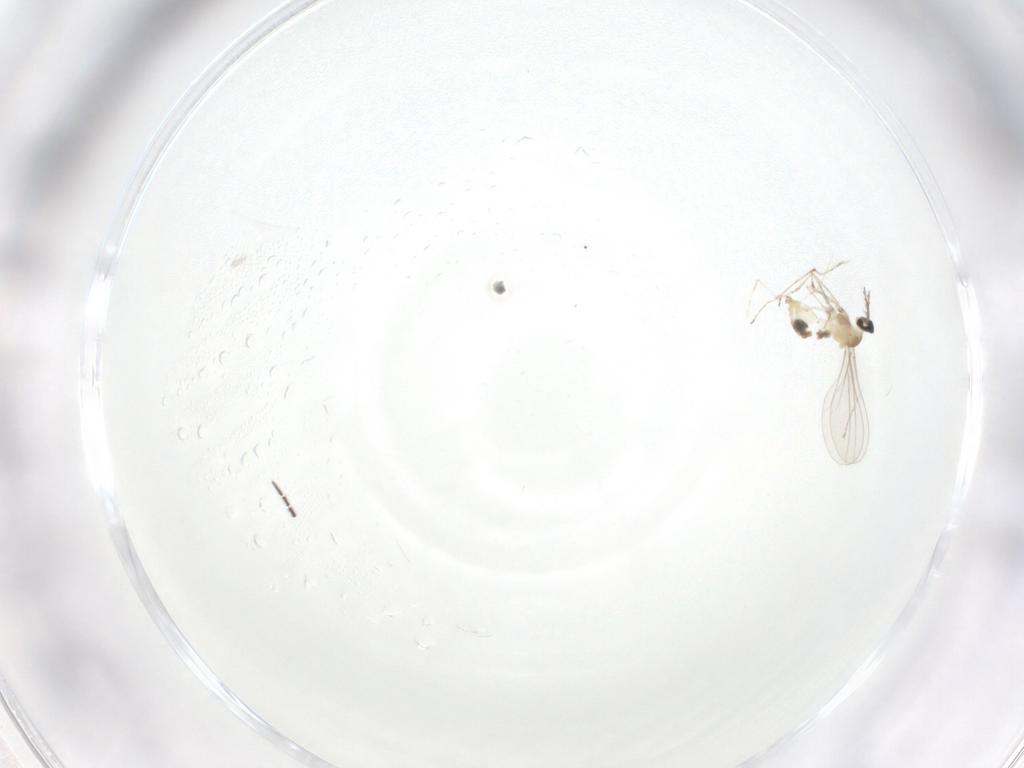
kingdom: Animalia
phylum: Arthropoda
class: Insecta
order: Diptera
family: Cecidomyiidae
